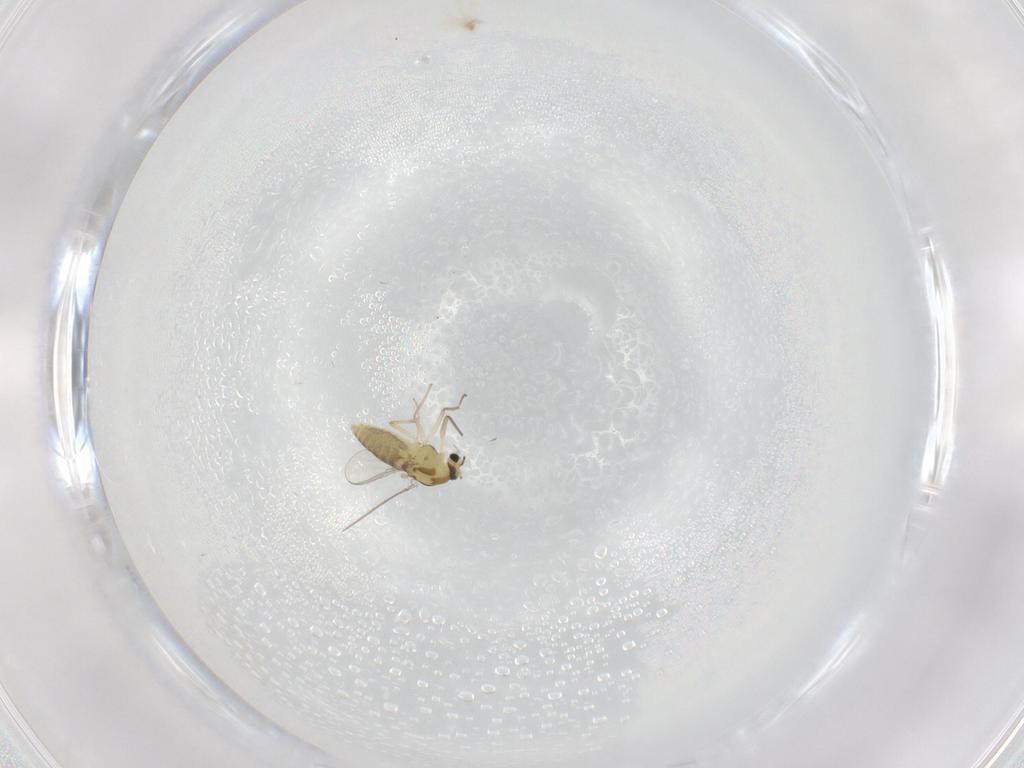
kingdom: Animalia
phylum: Arthropoda
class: Insecta
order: Diptera
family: Chironomidae
